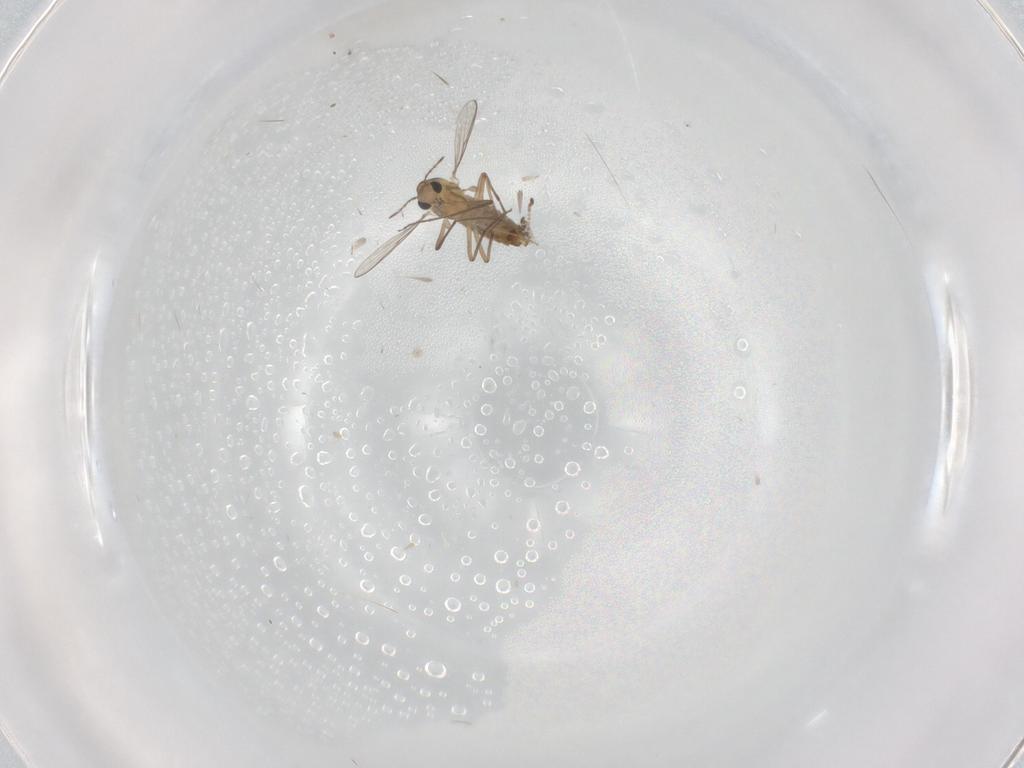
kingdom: Animalia
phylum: Arthropoda
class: Insecta
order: Diptera
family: Chironomidae
